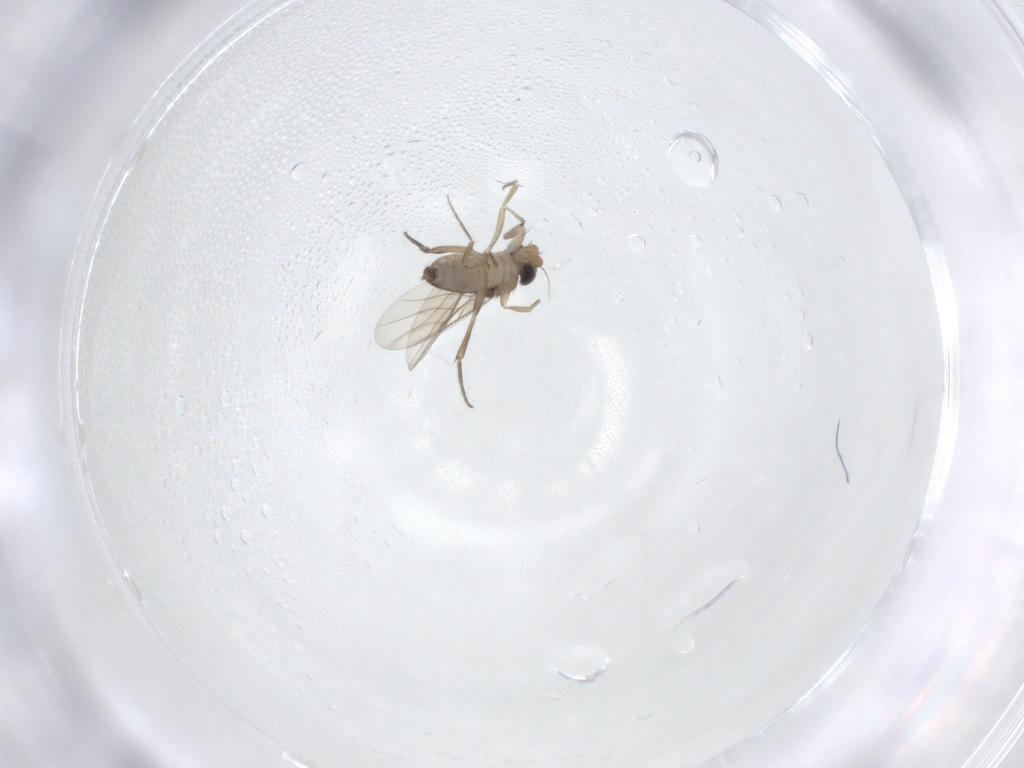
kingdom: Animalia
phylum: Arthropoda
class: Insecta
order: Diptera
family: Phoridae
